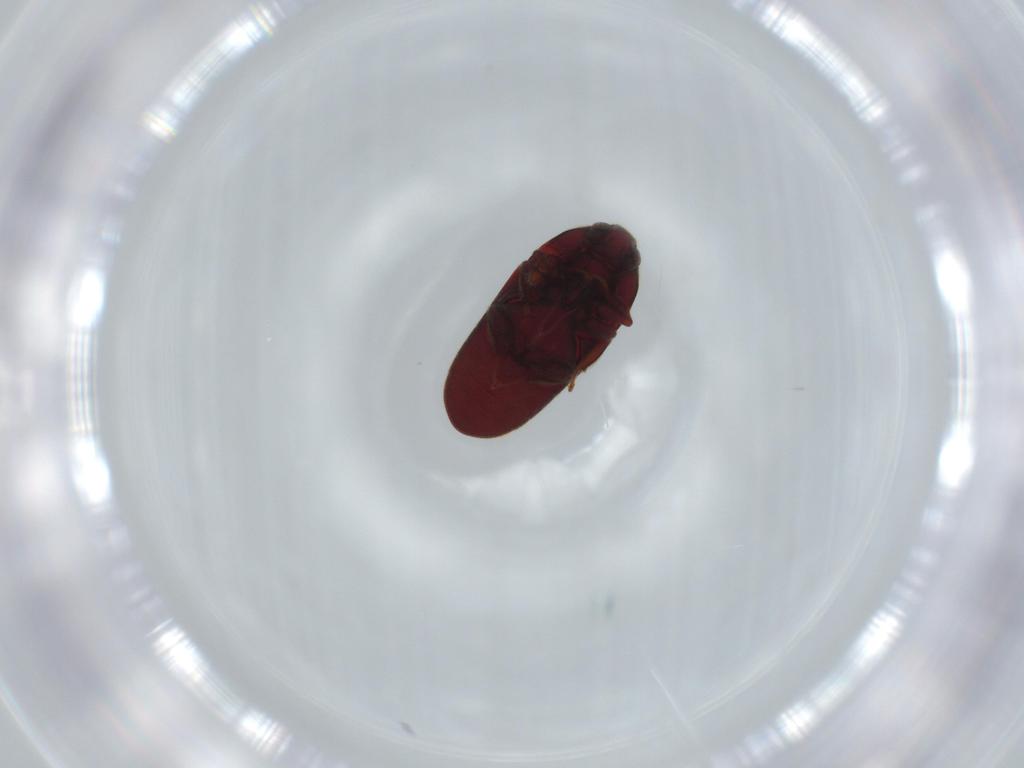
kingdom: Animalia
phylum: Arthropoda
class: Insecta
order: Coleoptera
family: Throscidae
